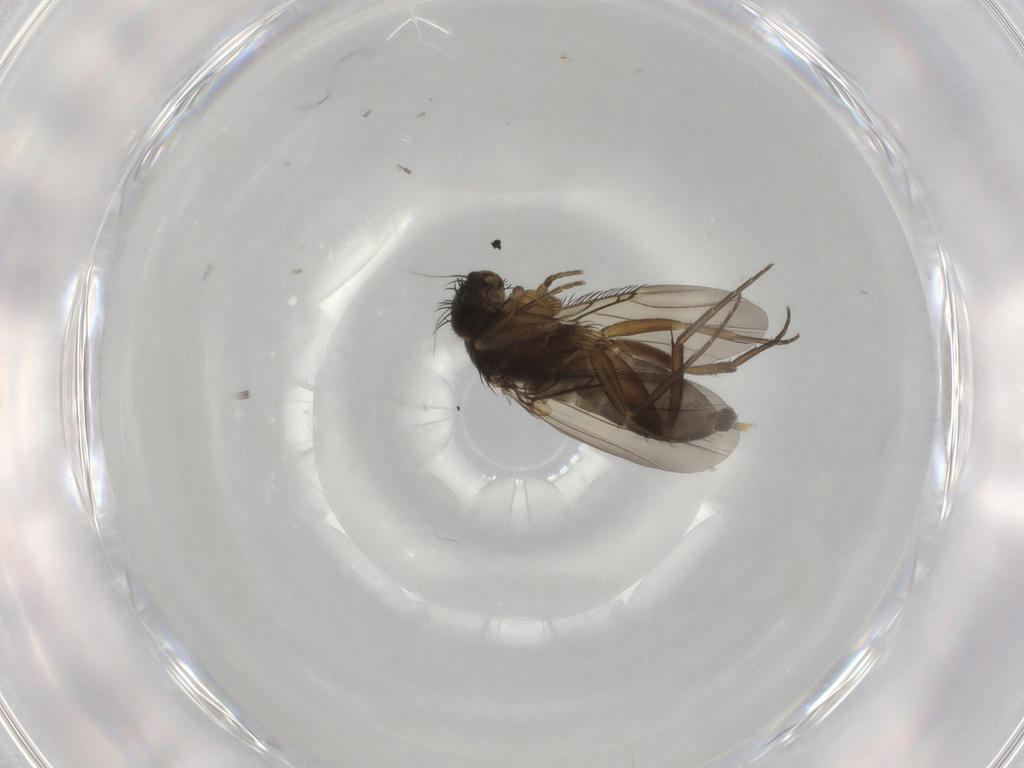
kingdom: Animalia
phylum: Arthropoda
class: Insecta
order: Diptera
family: Phoridae
